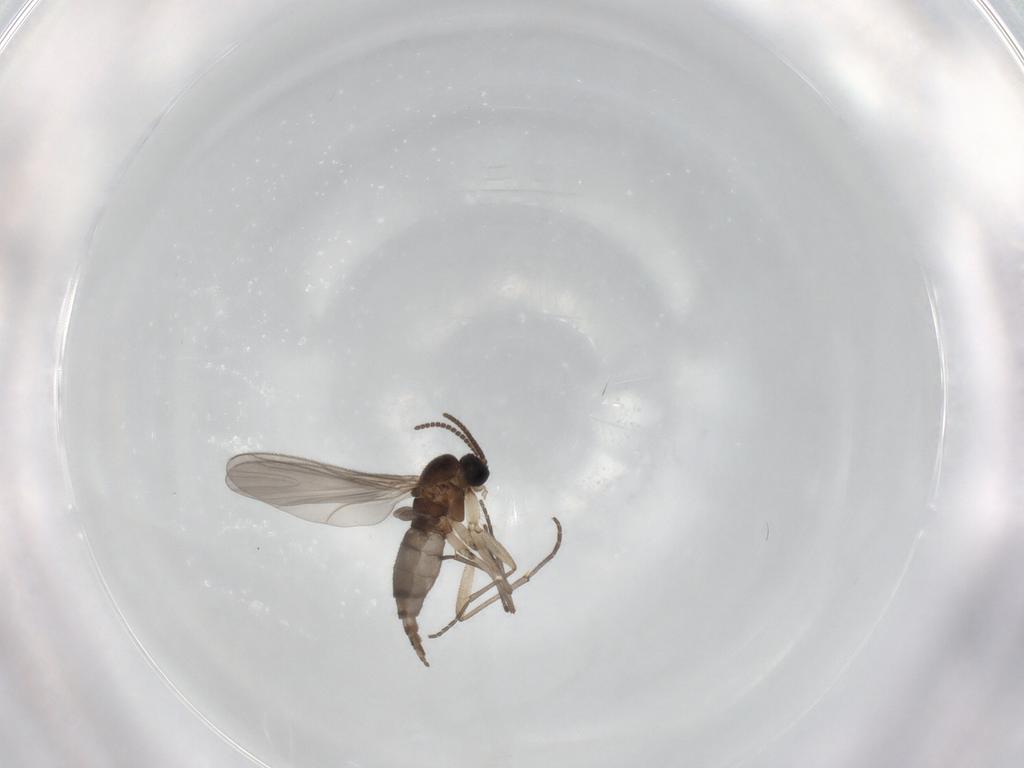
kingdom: Animalia
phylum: Arthropoda
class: Insecta
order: Diptera
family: Sciaridae
